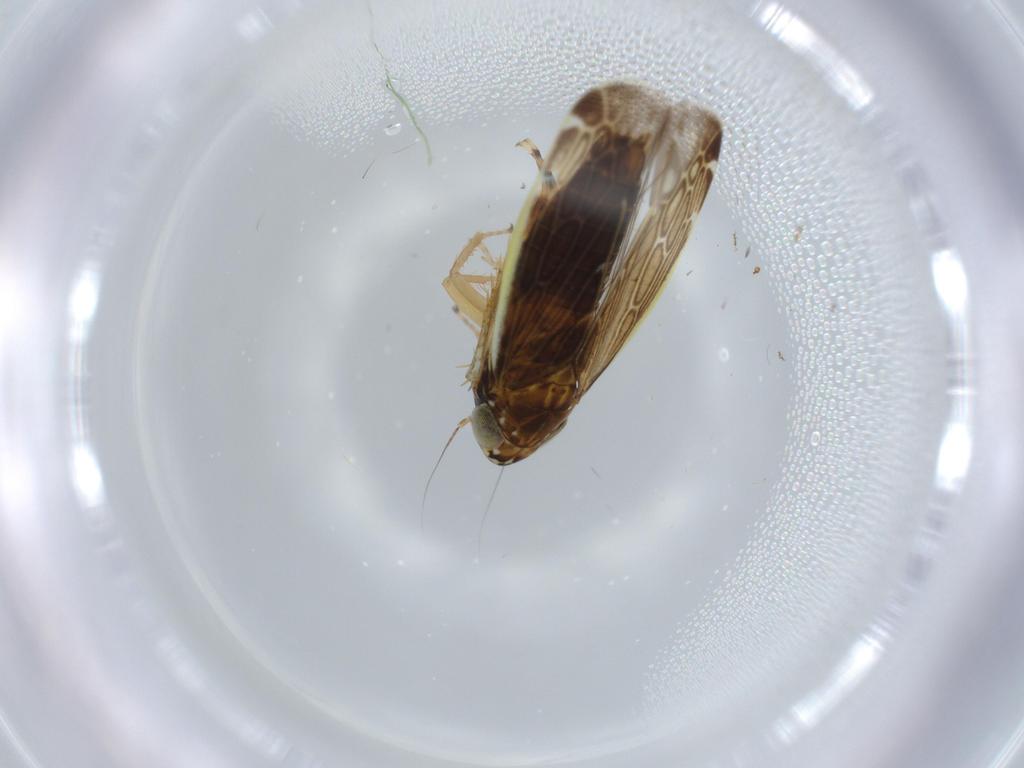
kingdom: Animalia
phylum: Arthropoda
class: Insecta
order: Hemiptera
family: Cicadellidae
